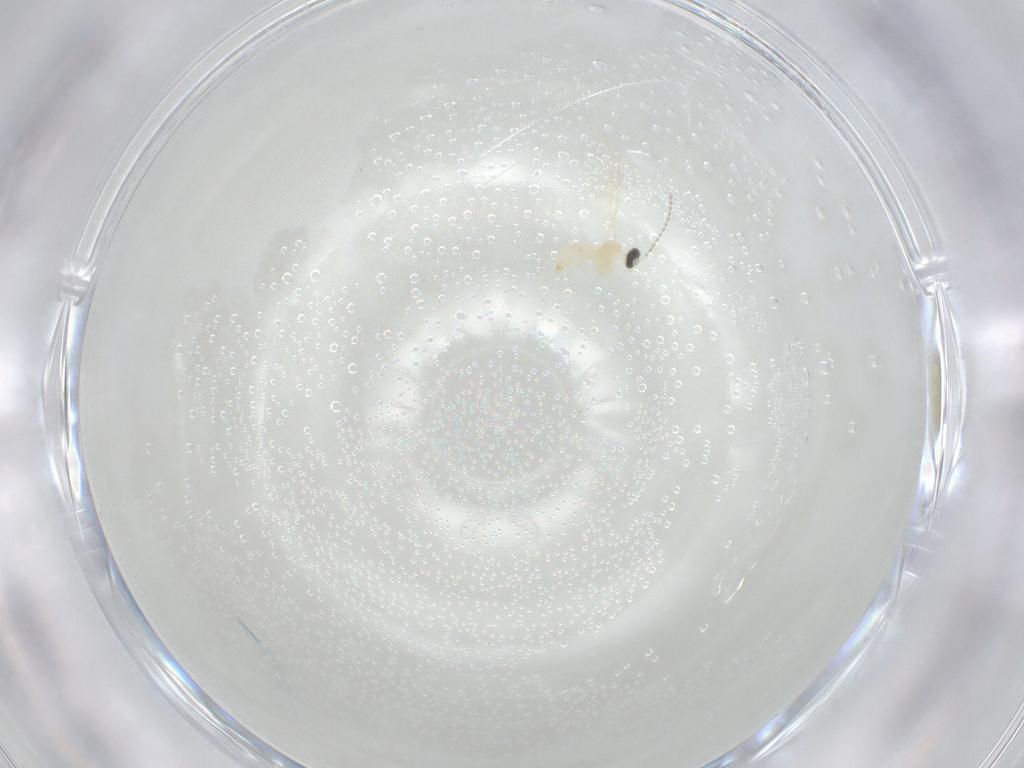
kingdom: Animalia
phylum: Arthropoda
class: Insecta
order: Diptera
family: Cecidomyiidae
